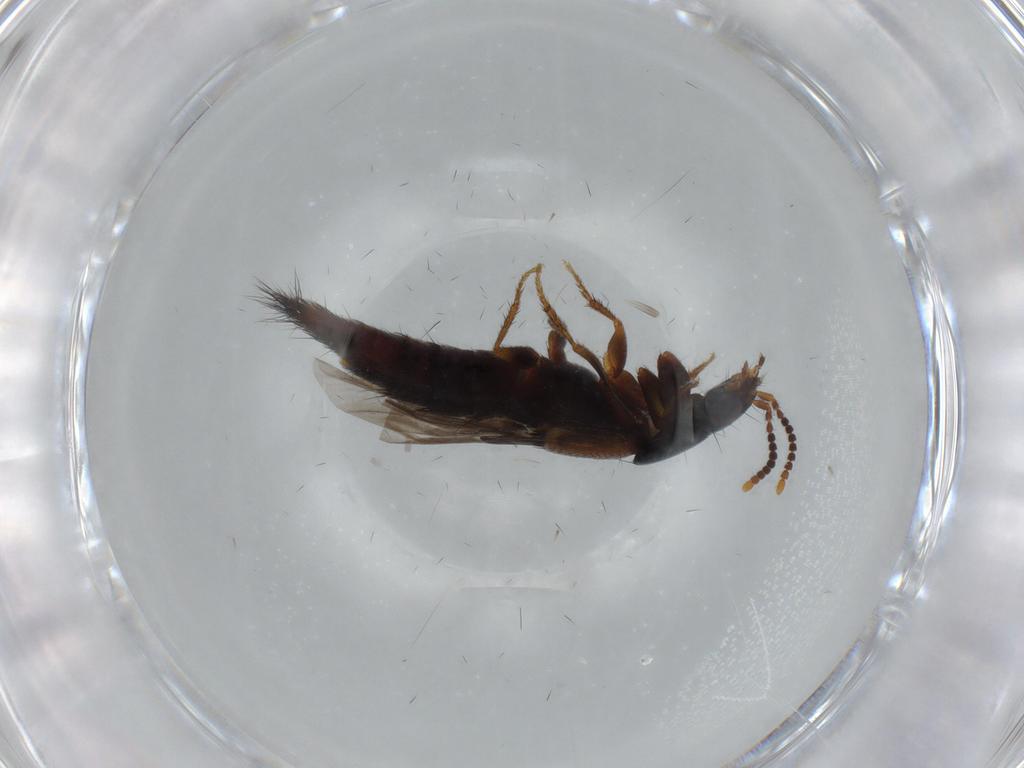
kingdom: Animalia
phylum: Arthropoda
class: Insecta
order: Coleoptera
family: Staphylinidae
